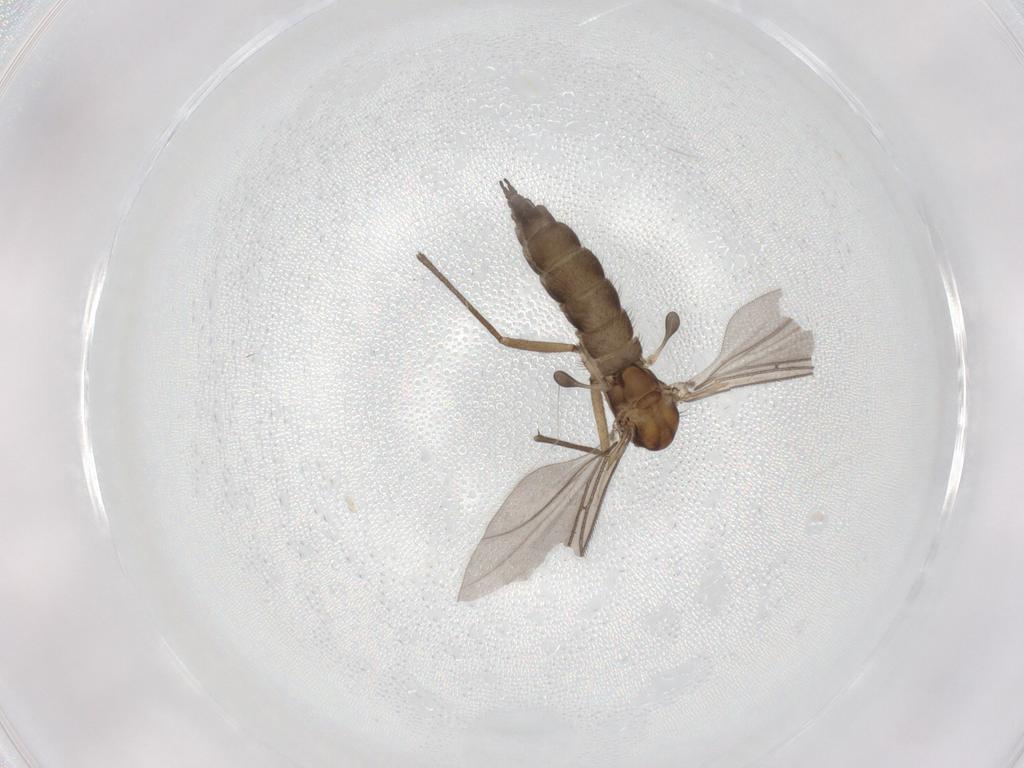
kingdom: Animalia
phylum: Arthropoda
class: Insecta
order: Diptera
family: Sciaridae
